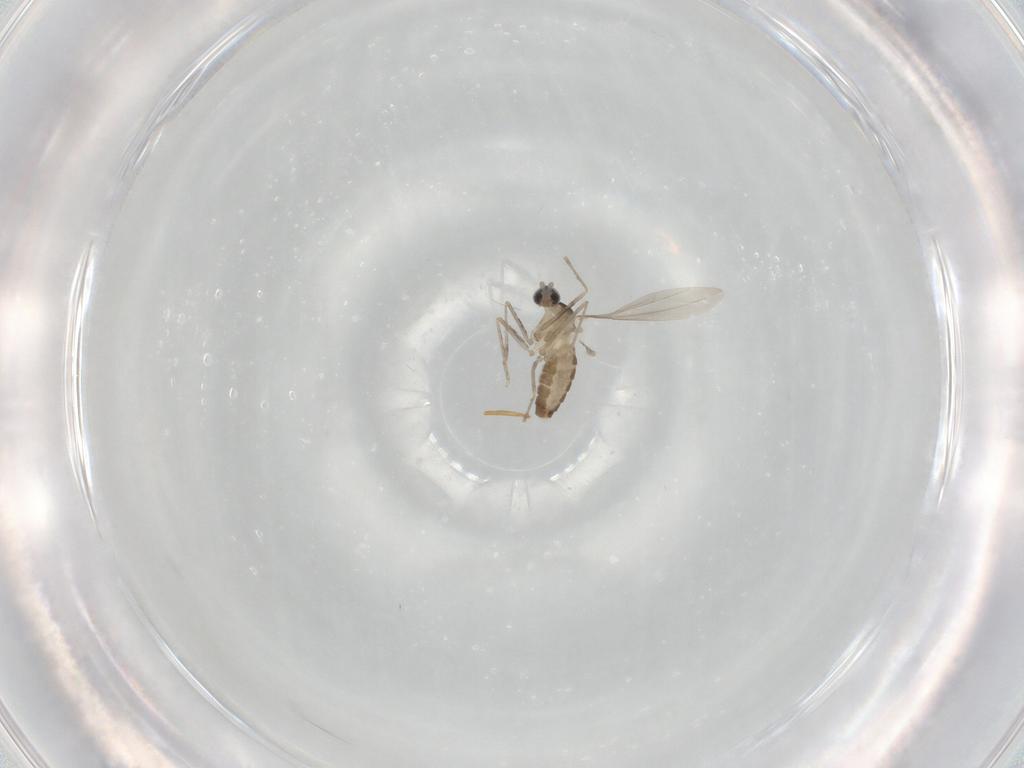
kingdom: Animalia
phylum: Arthropoda
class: Insecta
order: Diptera
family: Cecidomyiidae
